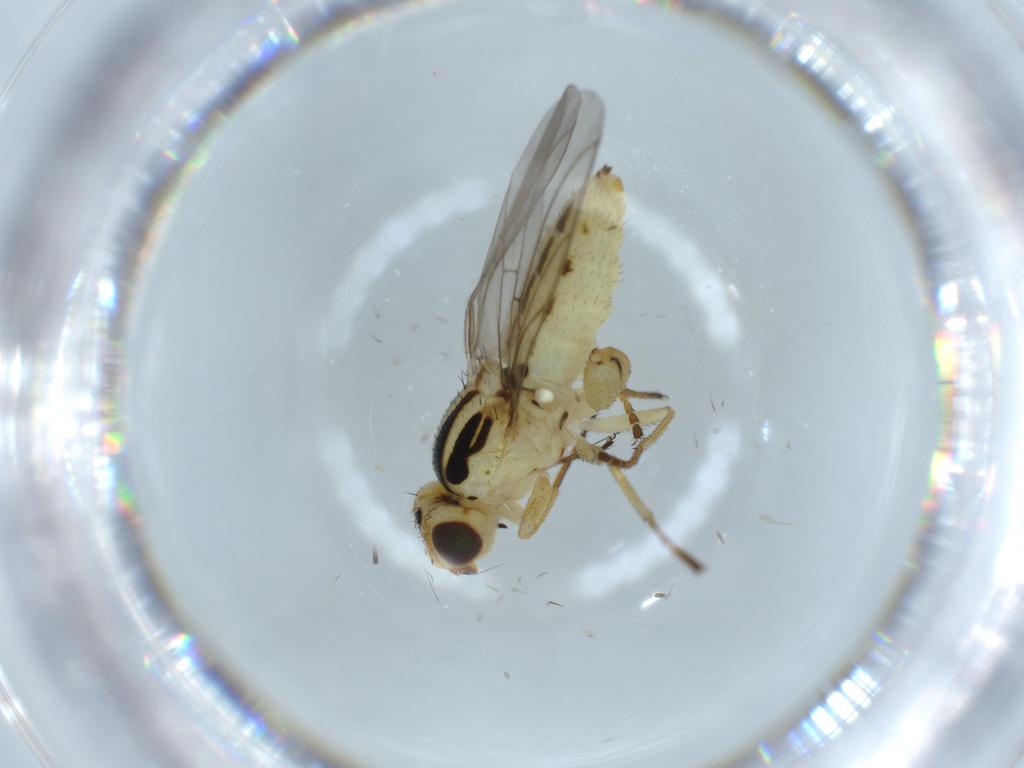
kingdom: Animalia
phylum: Arthropoda
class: Insecta
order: Diptera
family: Chloropidae
